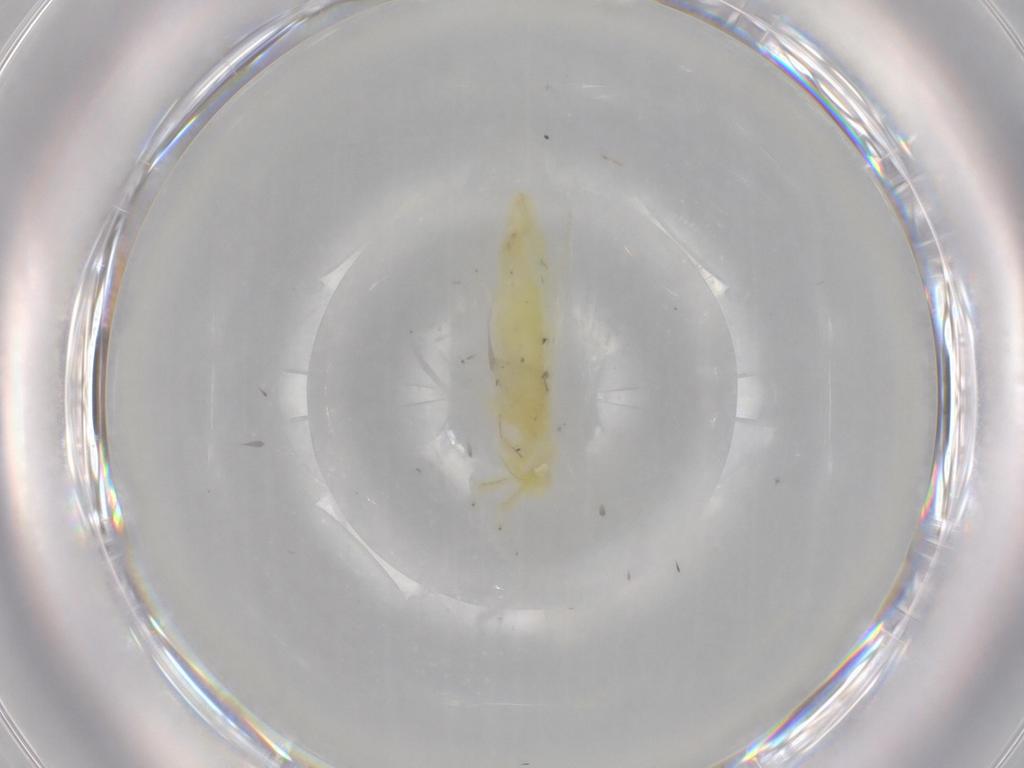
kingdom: Animalia
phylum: Arthropoda
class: Insecta
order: Hemiptera
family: Cicadellidae
